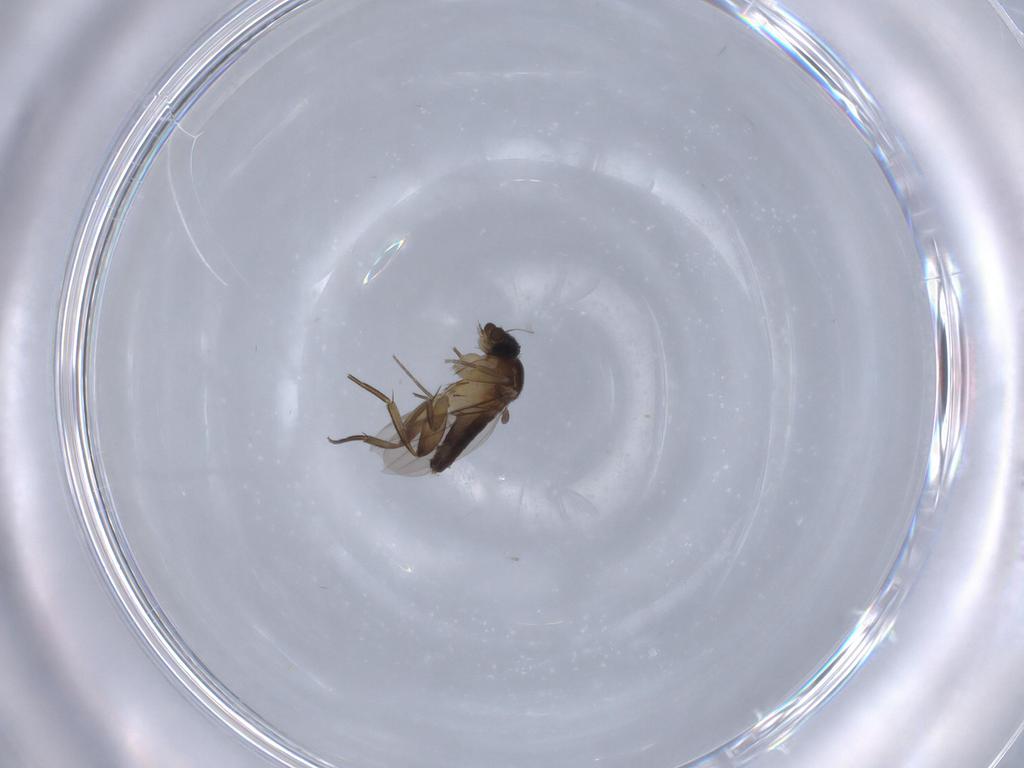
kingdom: Animalia
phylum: Arthropoda
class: Insecta
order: Diptera
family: Phoridae
